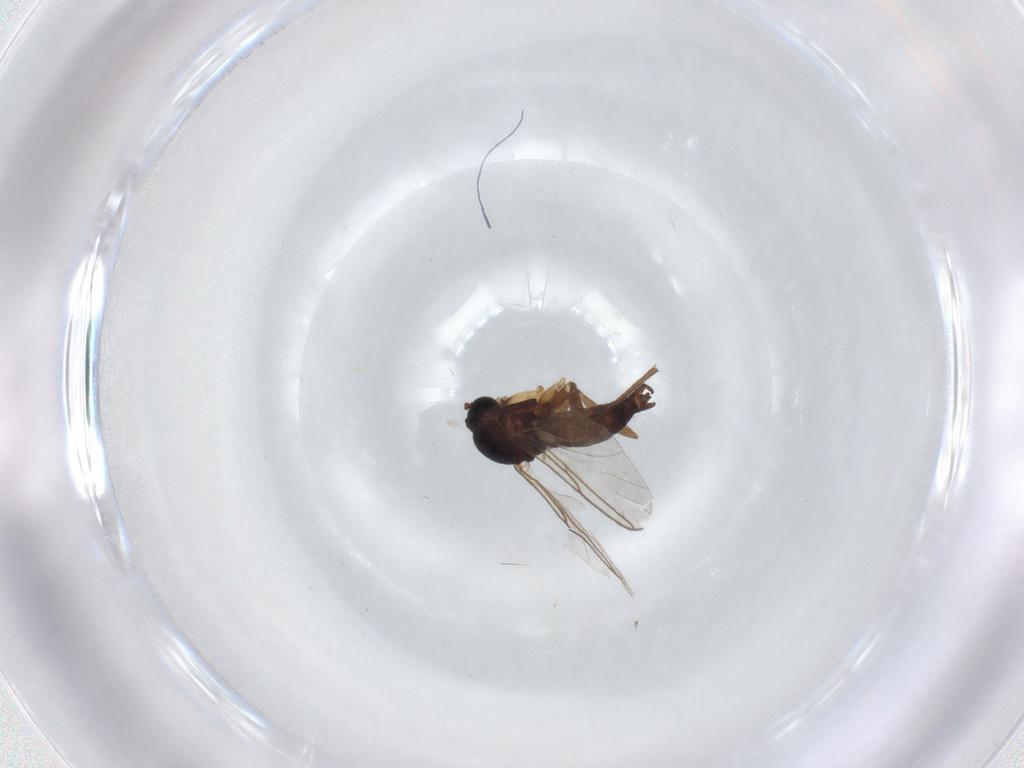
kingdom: Animalia
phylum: Arthropoda
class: Insecta
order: Diptera
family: Sciaridae
